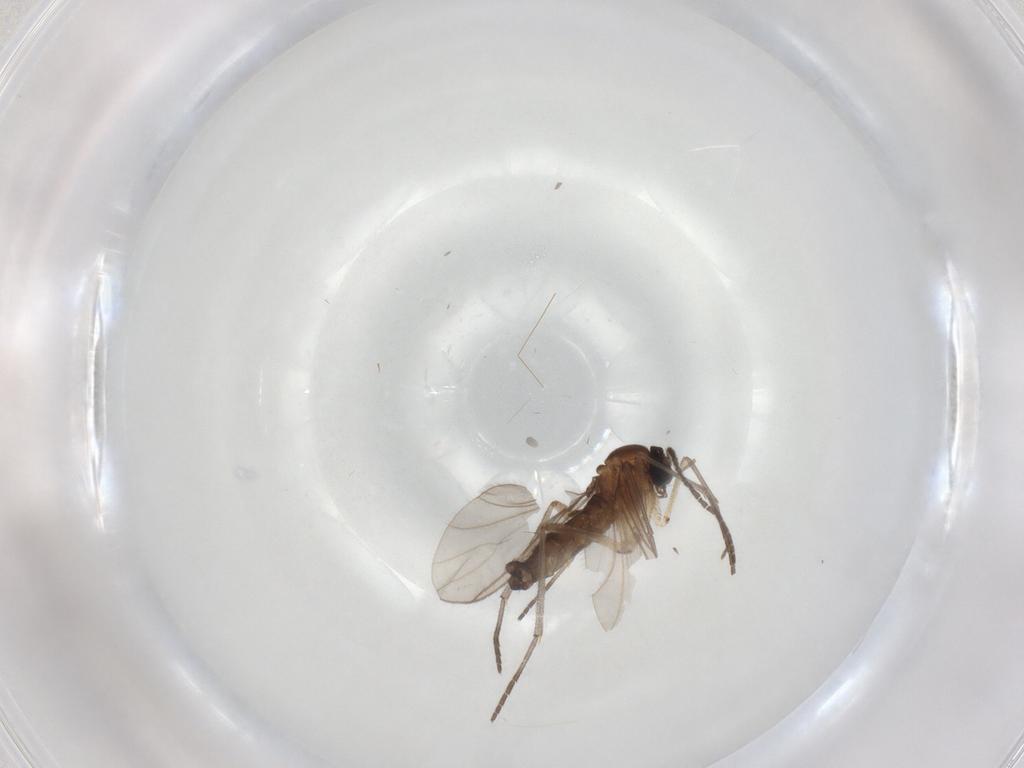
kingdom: Animalia
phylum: Arthropoda
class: Insecta
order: Diptera
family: Sciaridae
